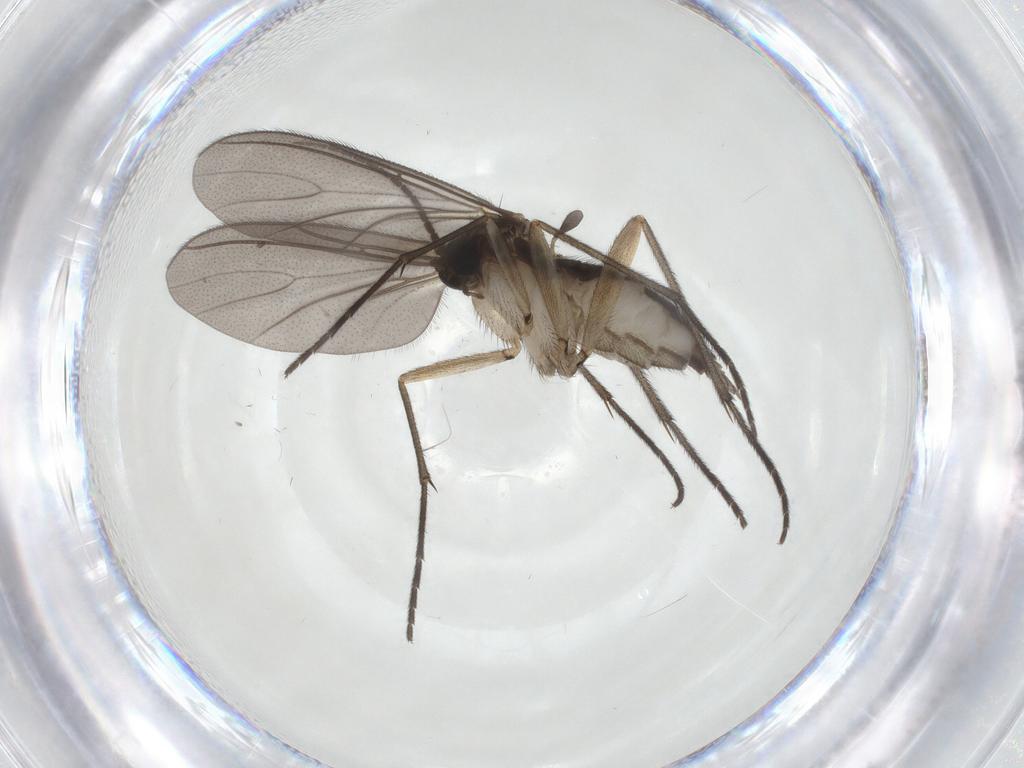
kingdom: Animalia
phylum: Arthropoda
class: Insecta
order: Diptera
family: Sciaridae
